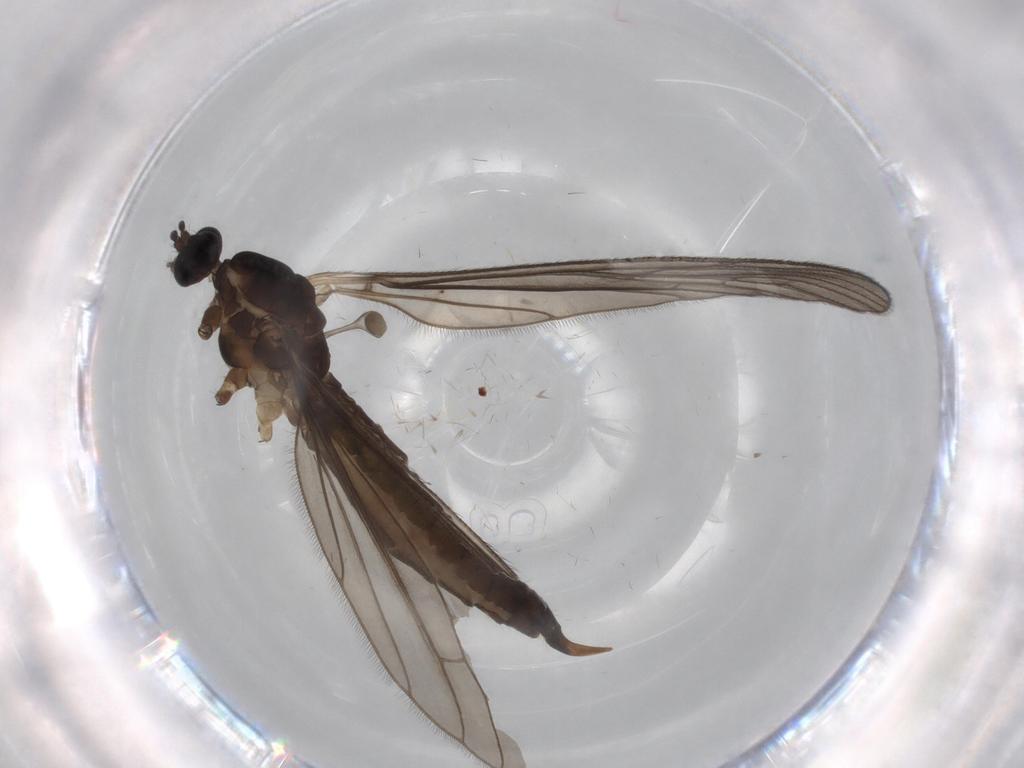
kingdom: Animalia
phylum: Arthropoda
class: Insecta
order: Diptera
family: Limoniidae
